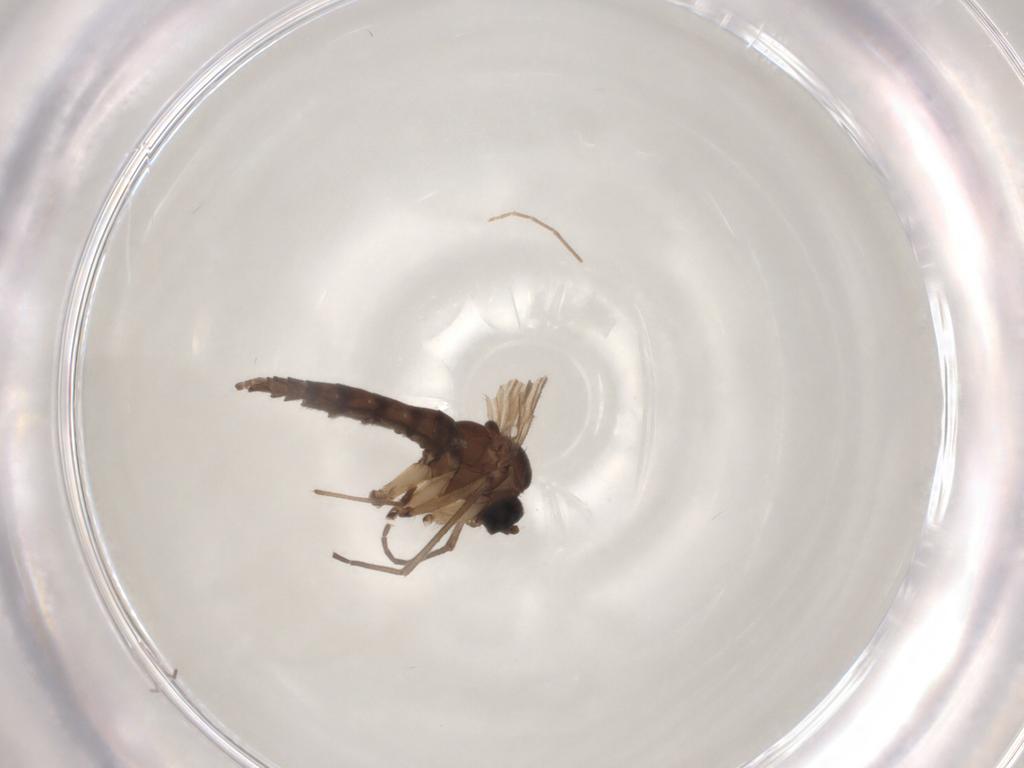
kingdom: Animalia
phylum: Arthropoda
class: Insecta
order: Diptera
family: Sciaridae
